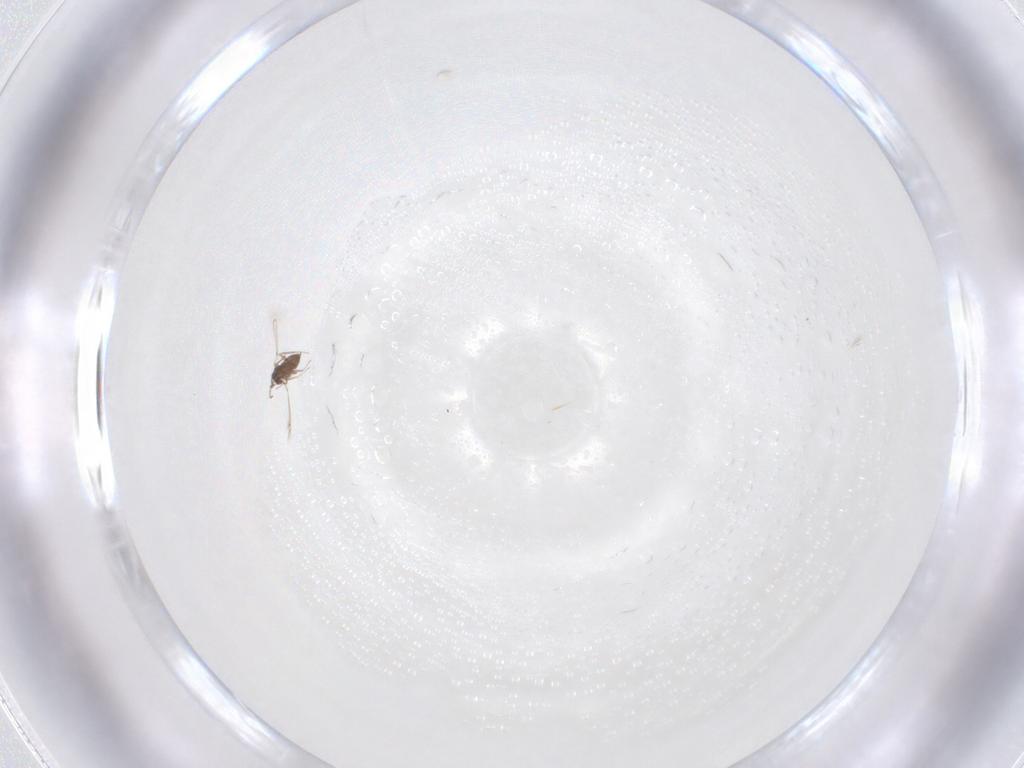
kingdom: Animalia
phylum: Arthropoda
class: Insecta
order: Hymenoptera
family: Mymaridae
